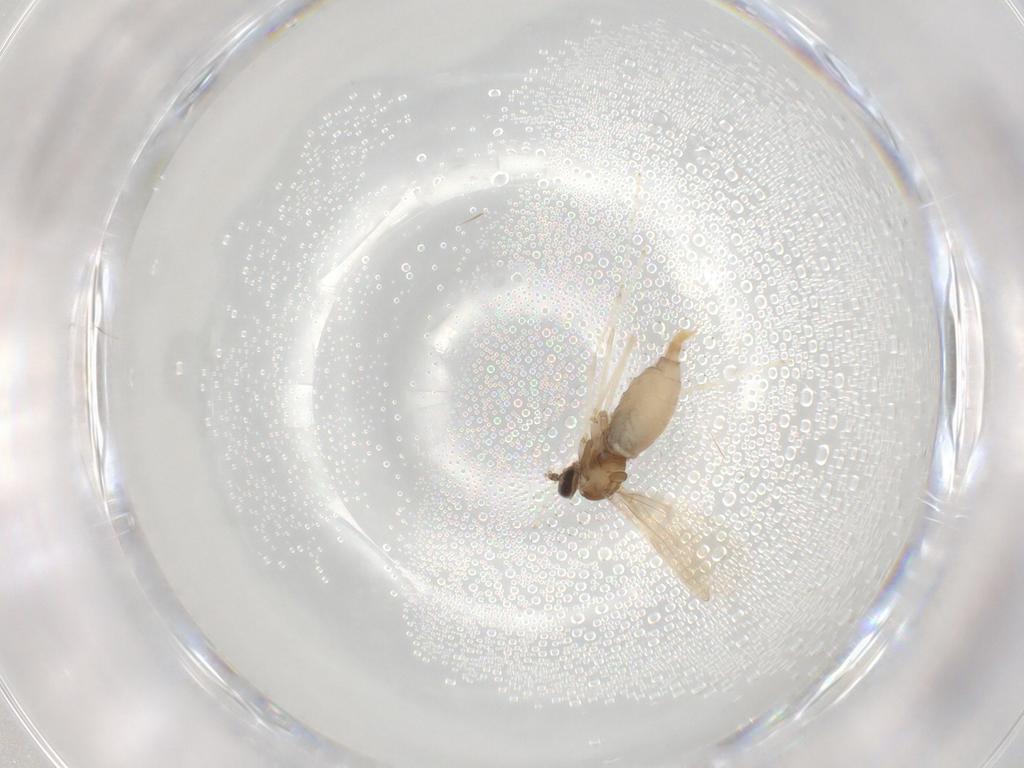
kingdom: Animalia
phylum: Arthropoda
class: Insecta
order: Diptera
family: Cecidomyiidae
